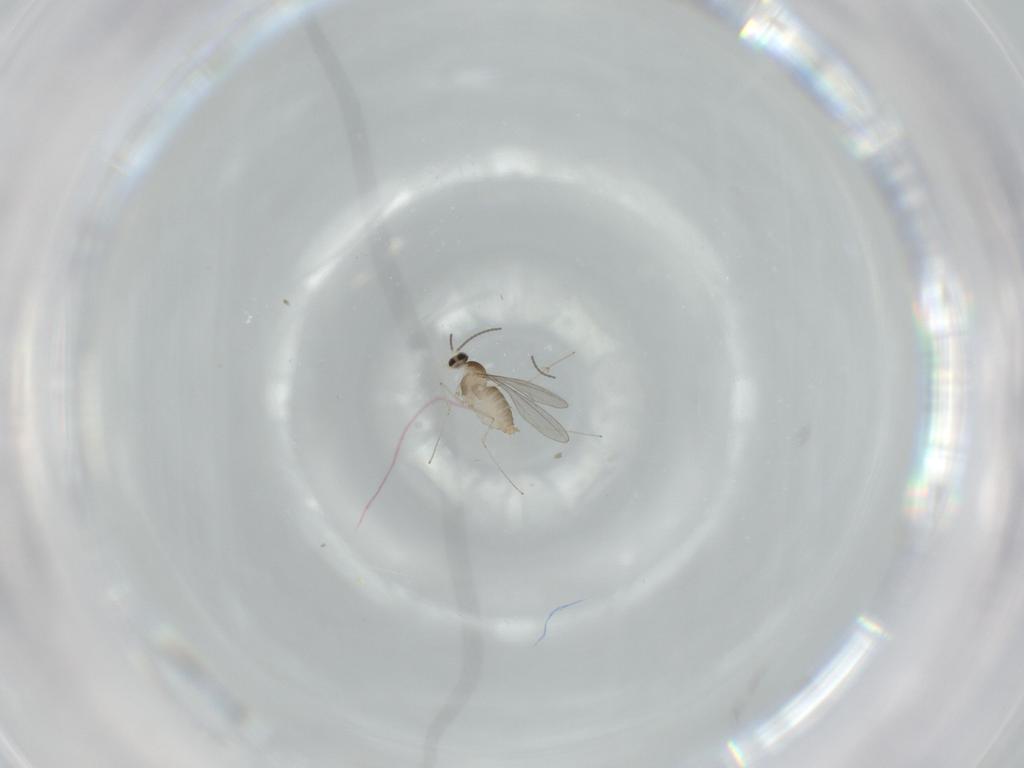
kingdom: Animalia
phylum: Arthropoda
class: Insecta
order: Diptera
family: Cecidomyiidae
